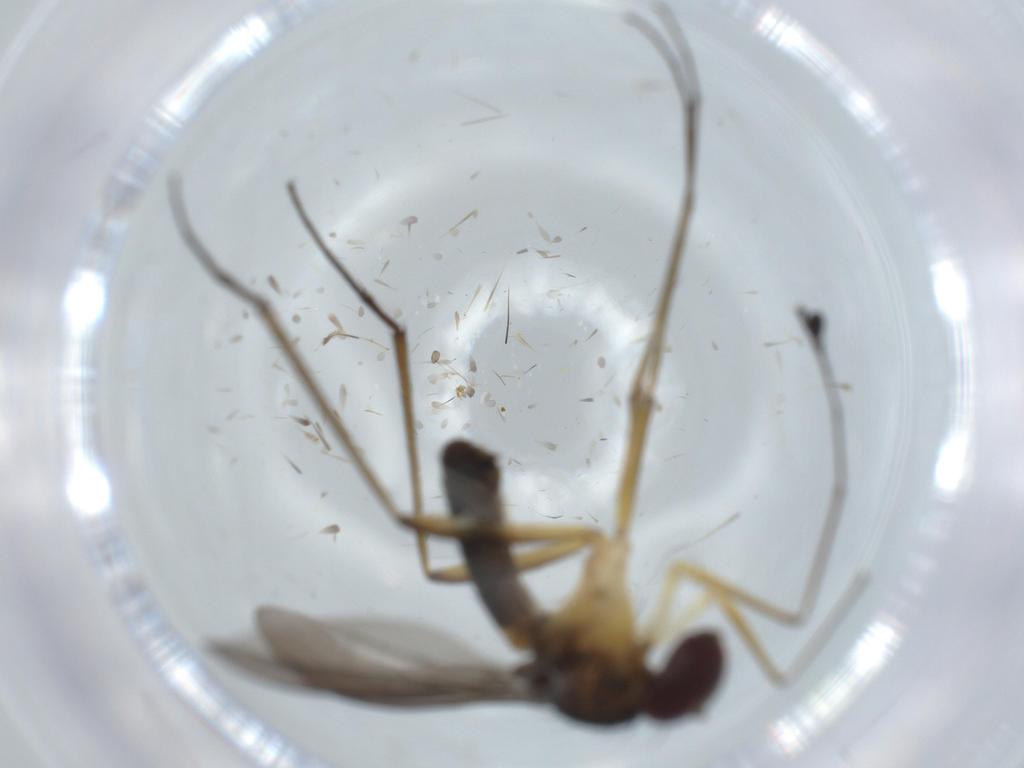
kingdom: Animalia
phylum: Arthropoda
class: Insecta
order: Diptera
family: Dolichopodidae
